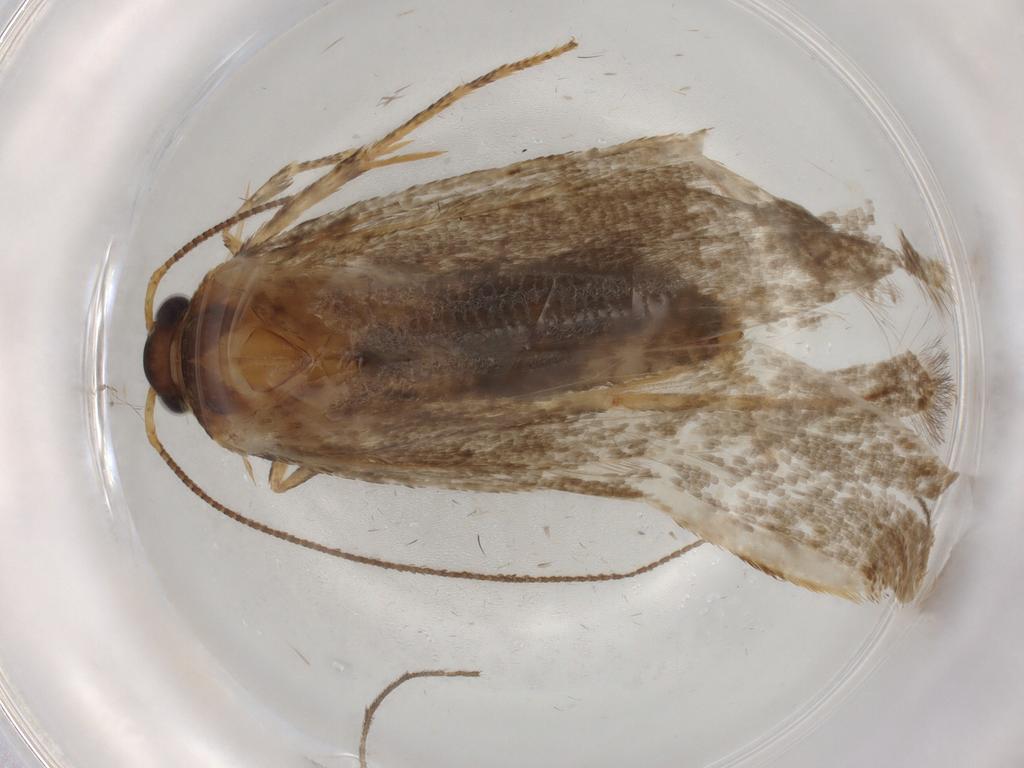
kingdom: Animalia
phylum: Arthropoda
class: Insecta
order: Lepidoptera
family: Blastobasidae
